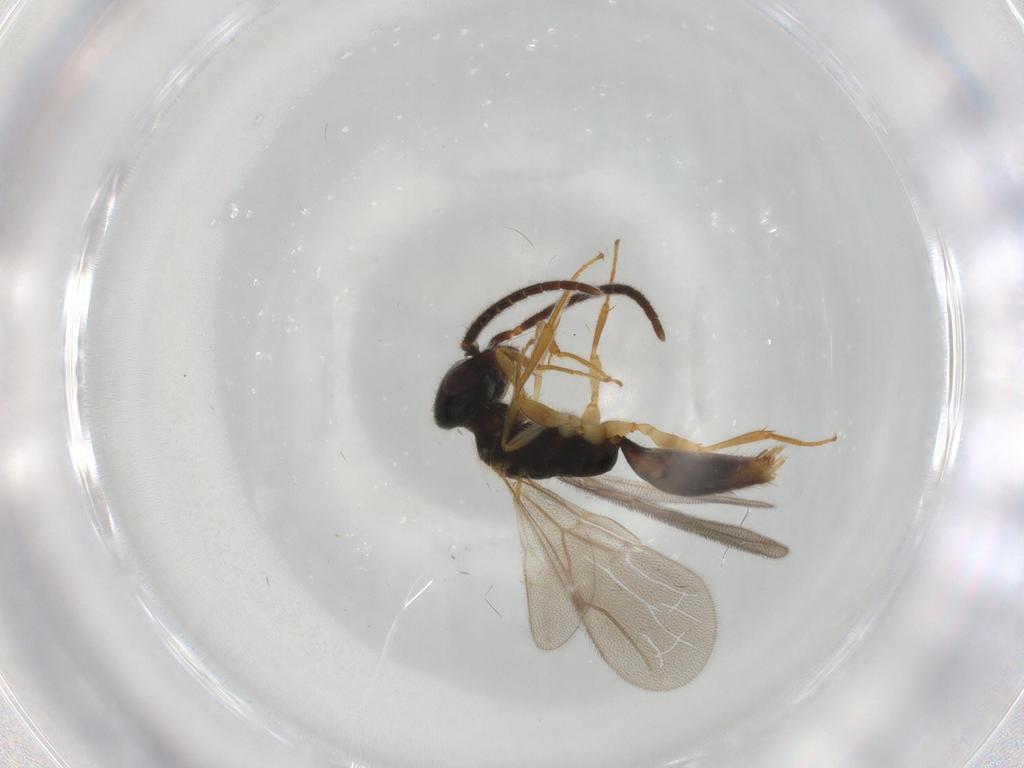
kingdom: Animalia
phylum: Arthropoda
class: Insecta
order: Hymenoptera
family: Bethylidae
